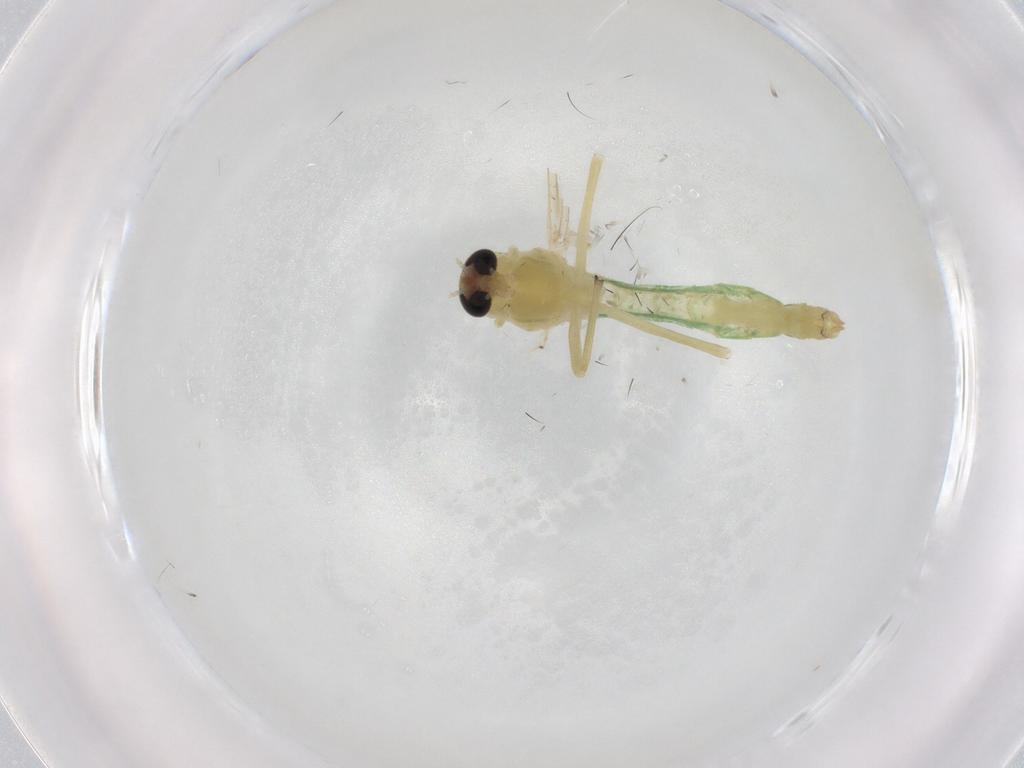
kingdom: Animalia
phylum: Arthropoda
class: Insecta
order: Diptera
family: Chironomidae
